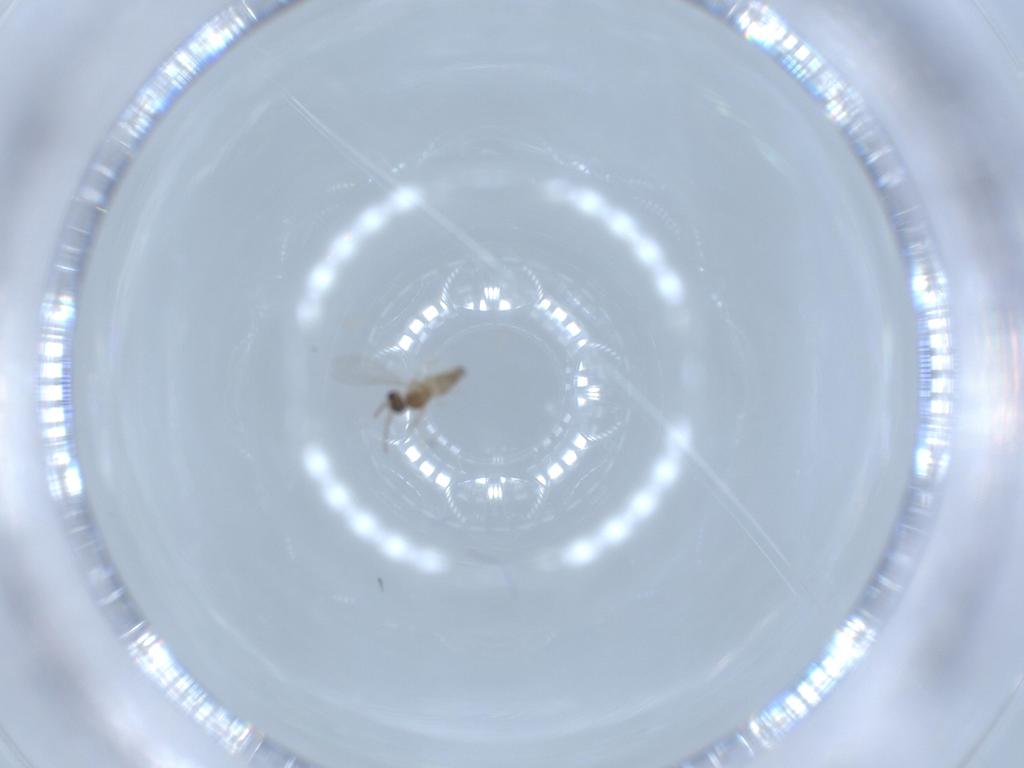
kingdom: Animalia
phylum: Arthropoda
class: Insecta
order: Diptera
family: Cecidomyiidae
